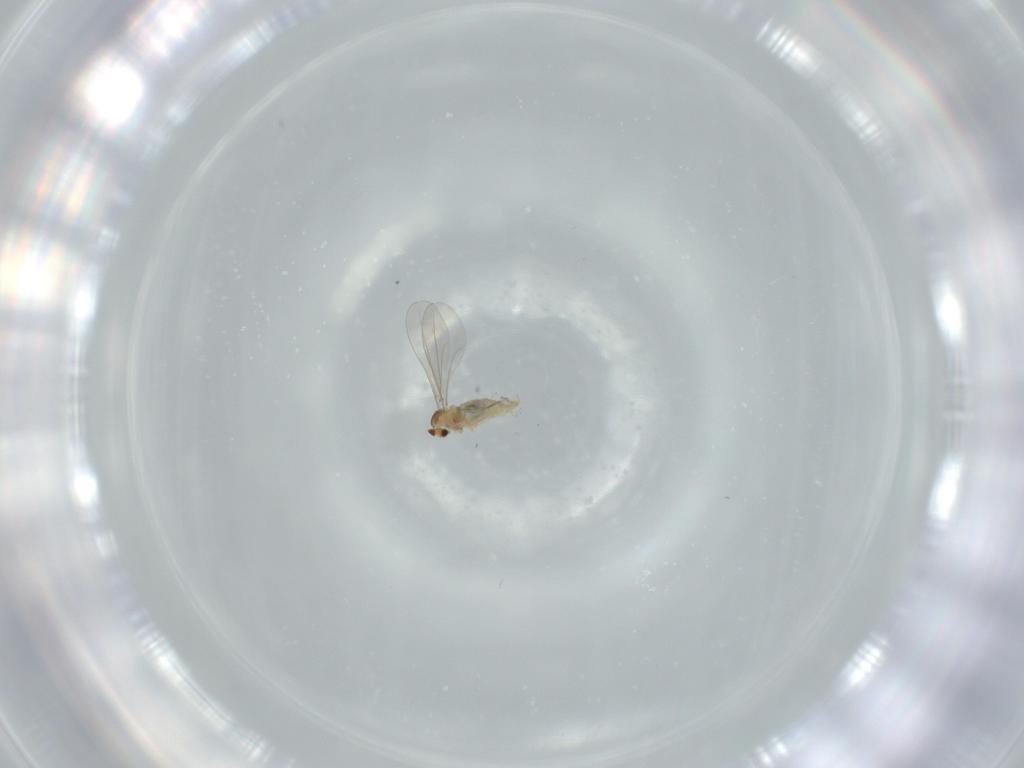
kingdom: Animalia
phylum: Arthropoda
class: Insecta
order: Diptera
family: Cecidomyiidae
